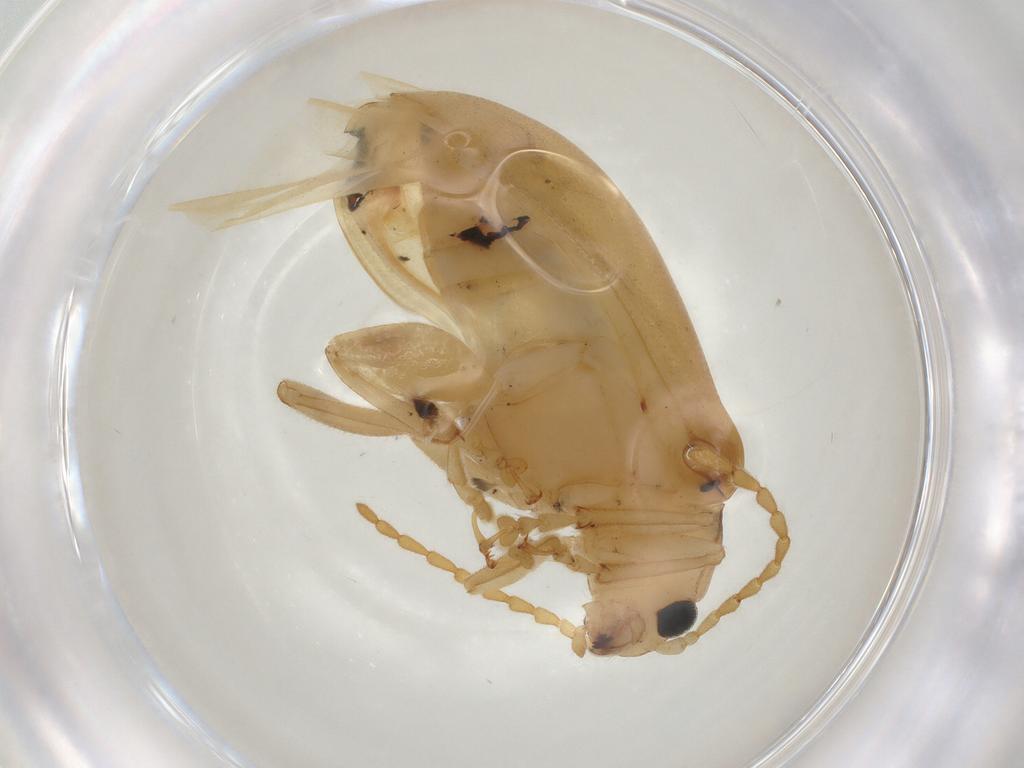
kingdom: Animalia
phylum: Arthropoda
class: Insecta
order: Coleoptera
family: Chrysomelidae
